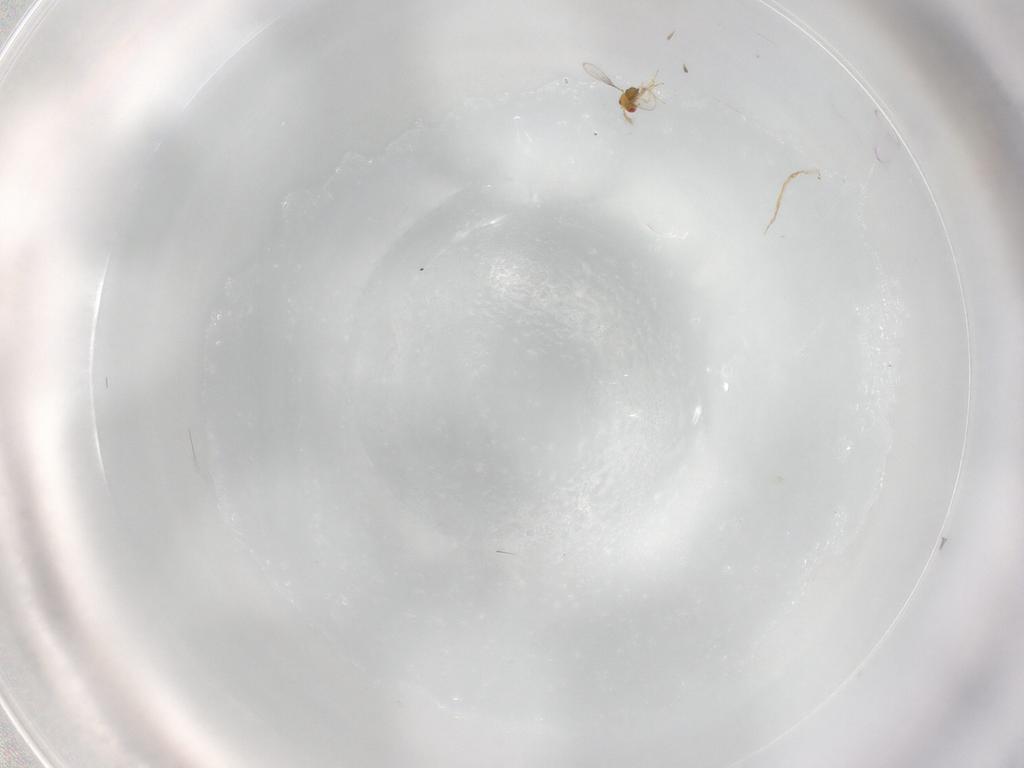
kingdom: Animalia
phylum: Arthropoda
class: Insecta
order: Hymenoptera
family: Trichogrammatidae
